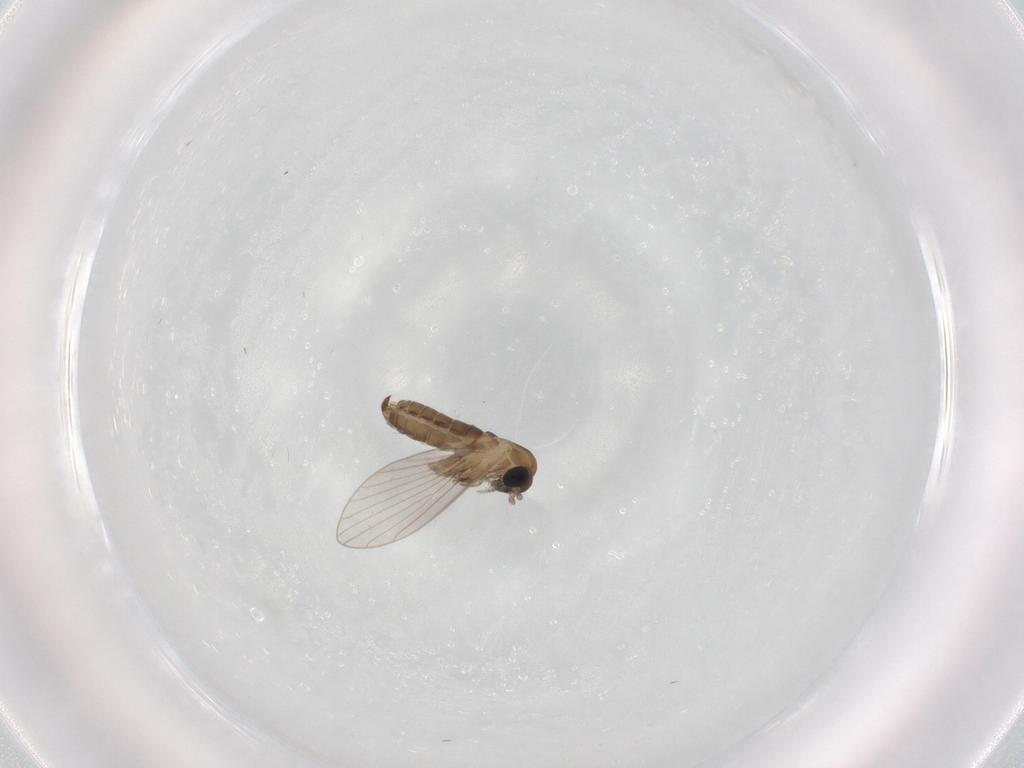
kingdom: Animalia
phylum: Arthropoda
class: Insecta
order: Diptera
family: Psychodidae
